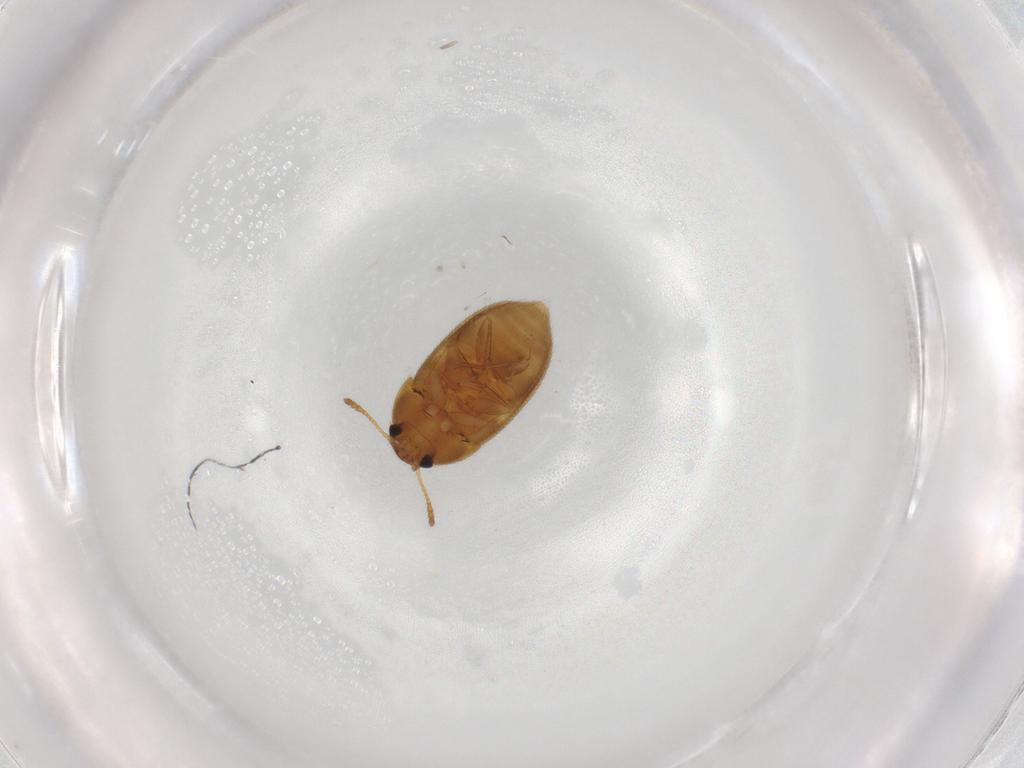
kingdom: Animalia
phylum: Arthropoda
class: Insecta
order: Coleoptera
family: Mycetophagidae
